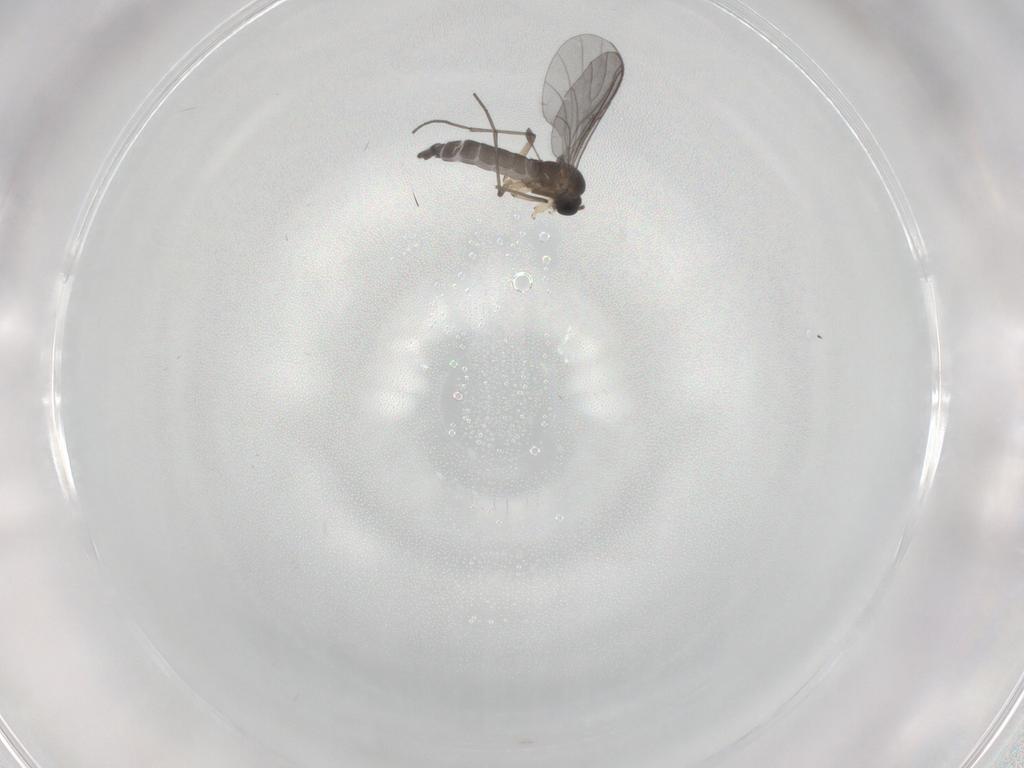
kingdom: Animalia
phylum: Arthropoda
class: Insecta
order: Diptera
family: Sciaridae
